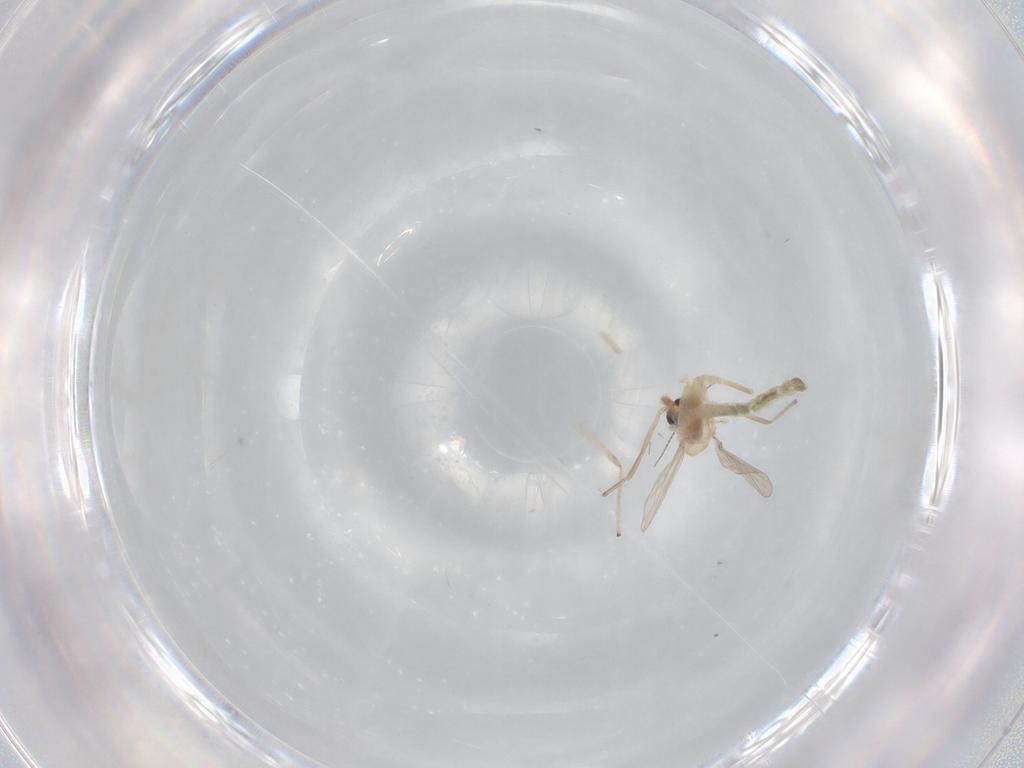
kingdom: Animalia
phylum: Arthropoda
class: Insecta
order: Diptera
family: Chironomidae
